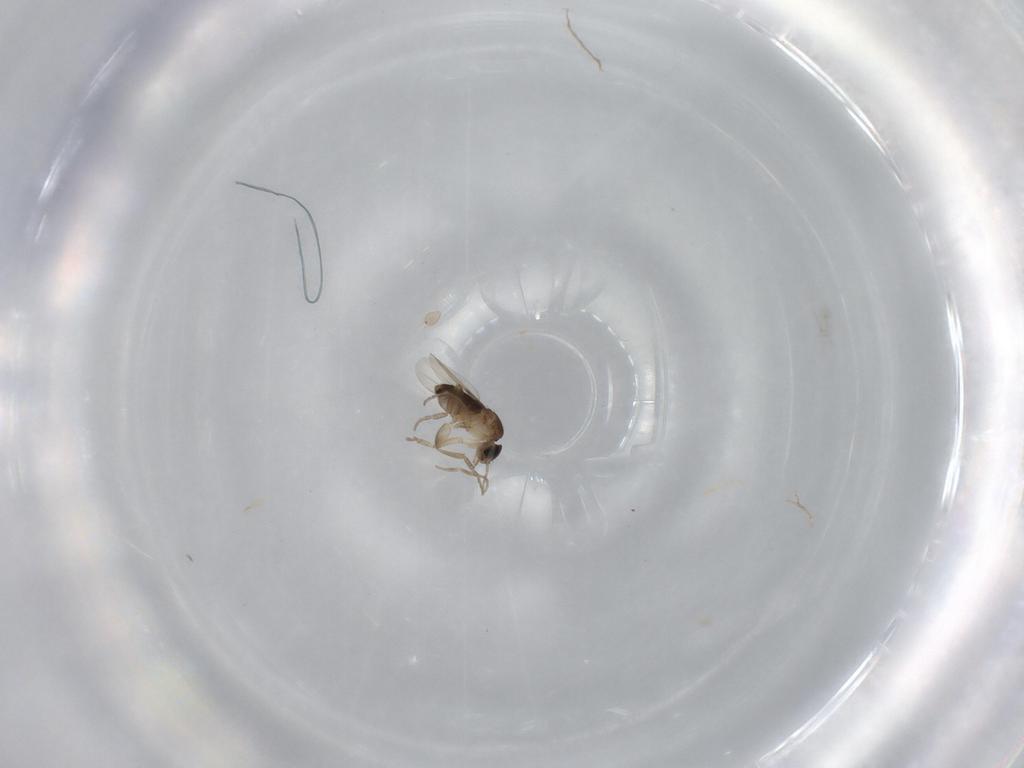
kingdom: Animalia
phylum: Arthropoda
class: Insecta
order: Diptera
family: Phoridae
